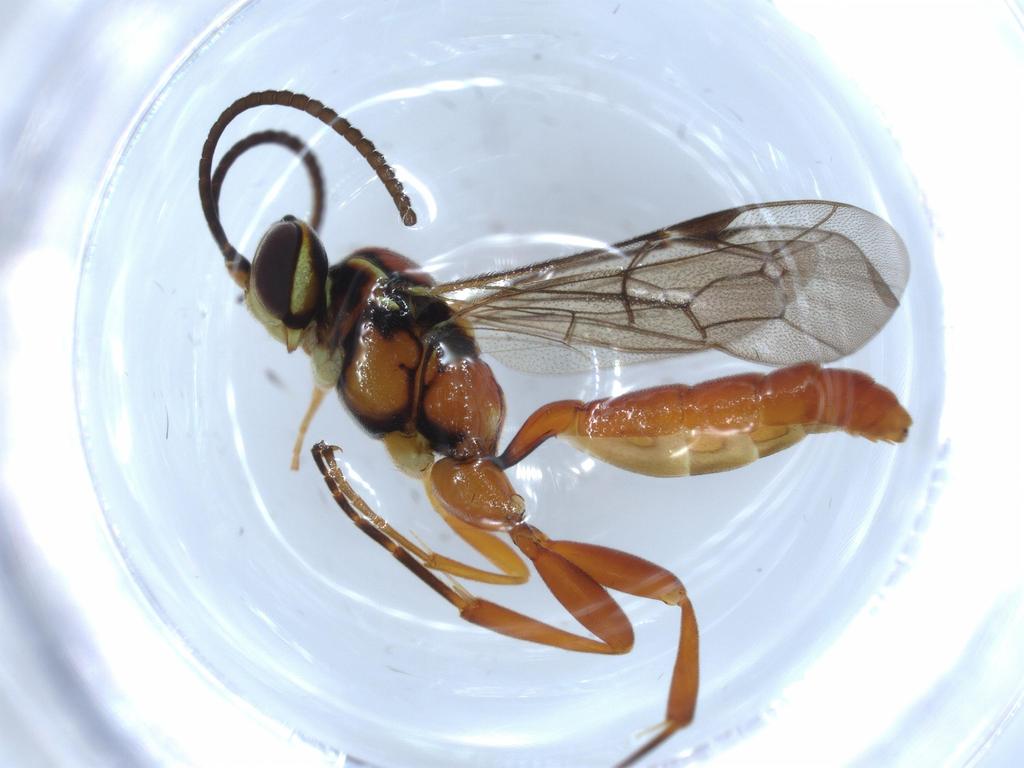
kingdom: Animalia
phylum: Arthropoda
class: Insecta
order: Hymenoptera
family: Ichneumonidae
